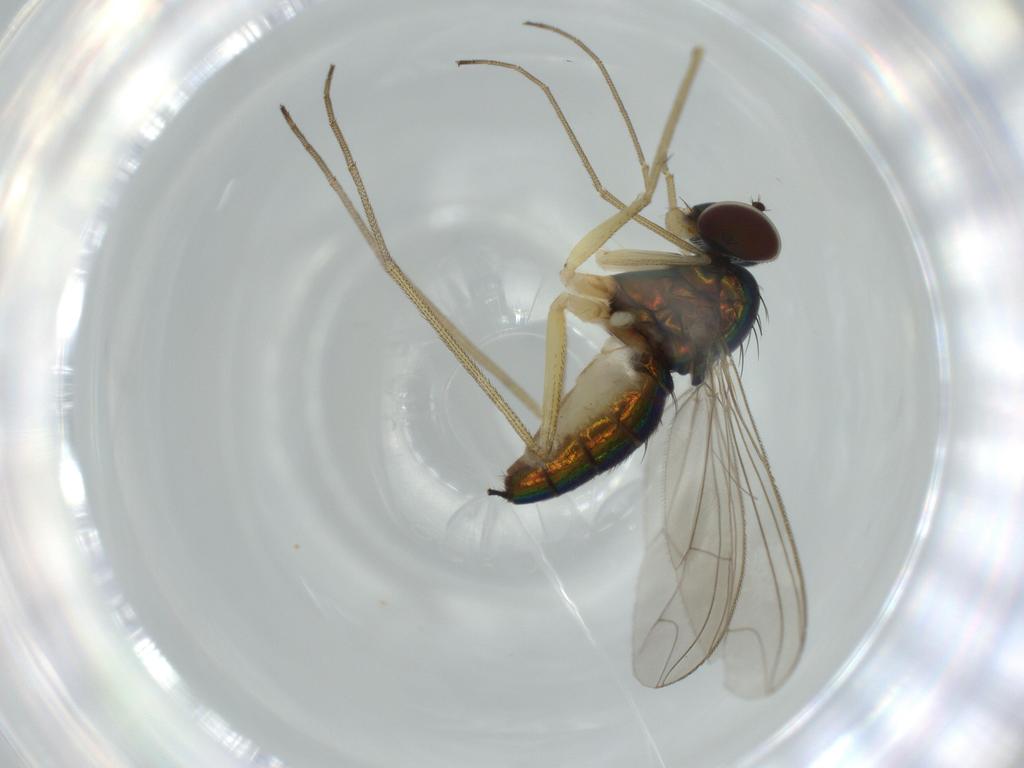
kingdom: Animalia
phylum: Arthropoda
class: Insecta
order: Diptera
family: Dolichopodidae
